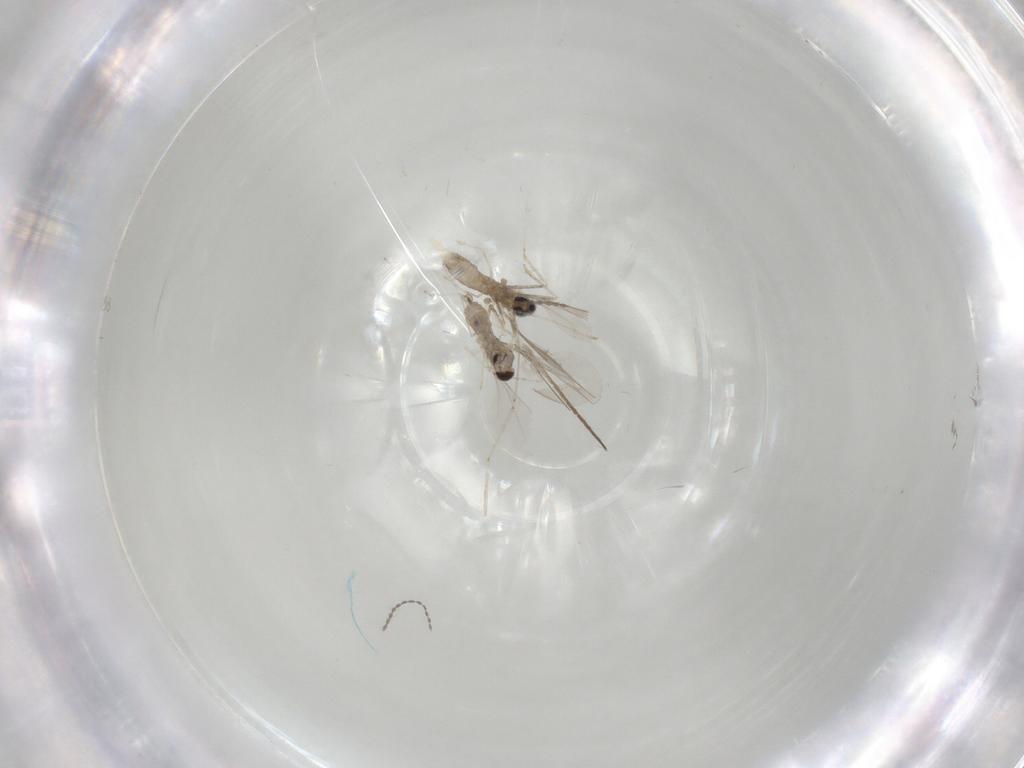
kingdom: Animalia
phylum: Arthropoda
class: Insecta
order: Diptera
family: Cecidomyiidae
